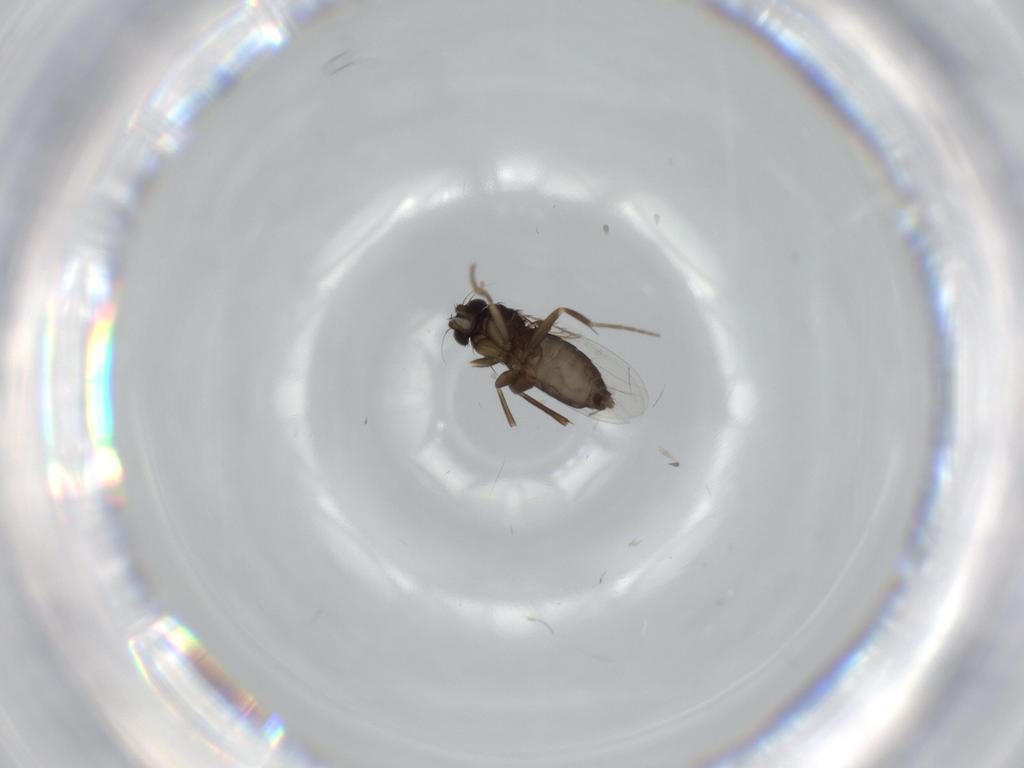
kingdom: Animalia
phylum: Arthropoda
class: Insecta
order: Diptera
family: Phoridae
